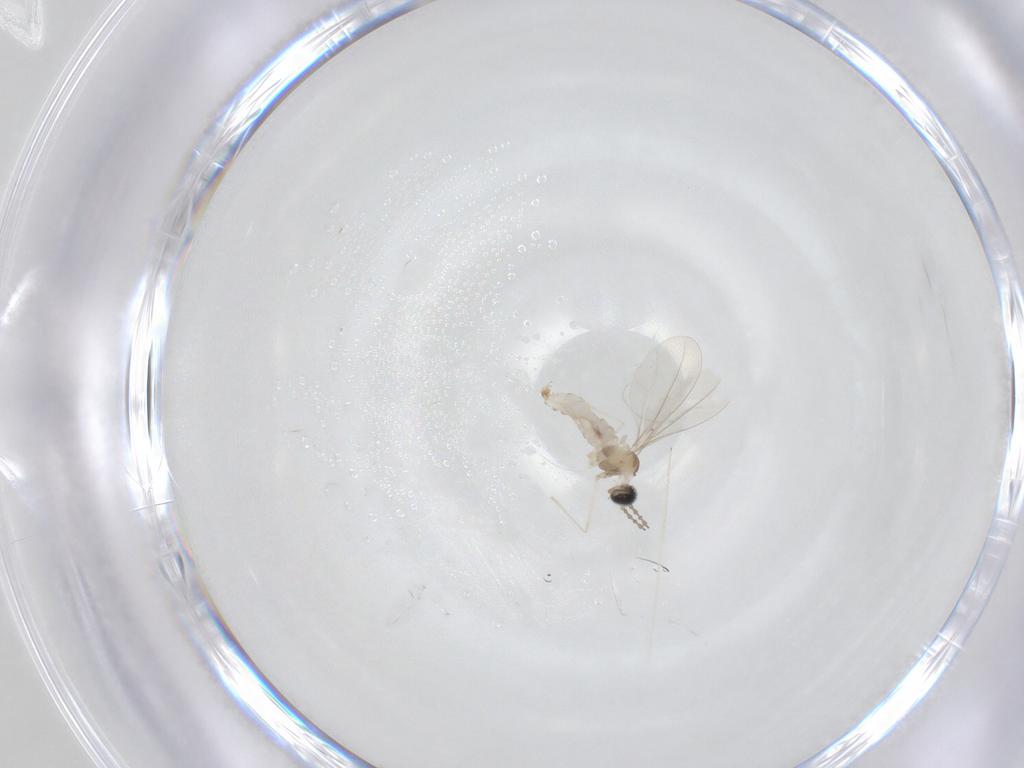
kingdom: Animalia
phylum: Arthropoda
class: Insecta
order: Diptera
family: Cecidomyiidae
